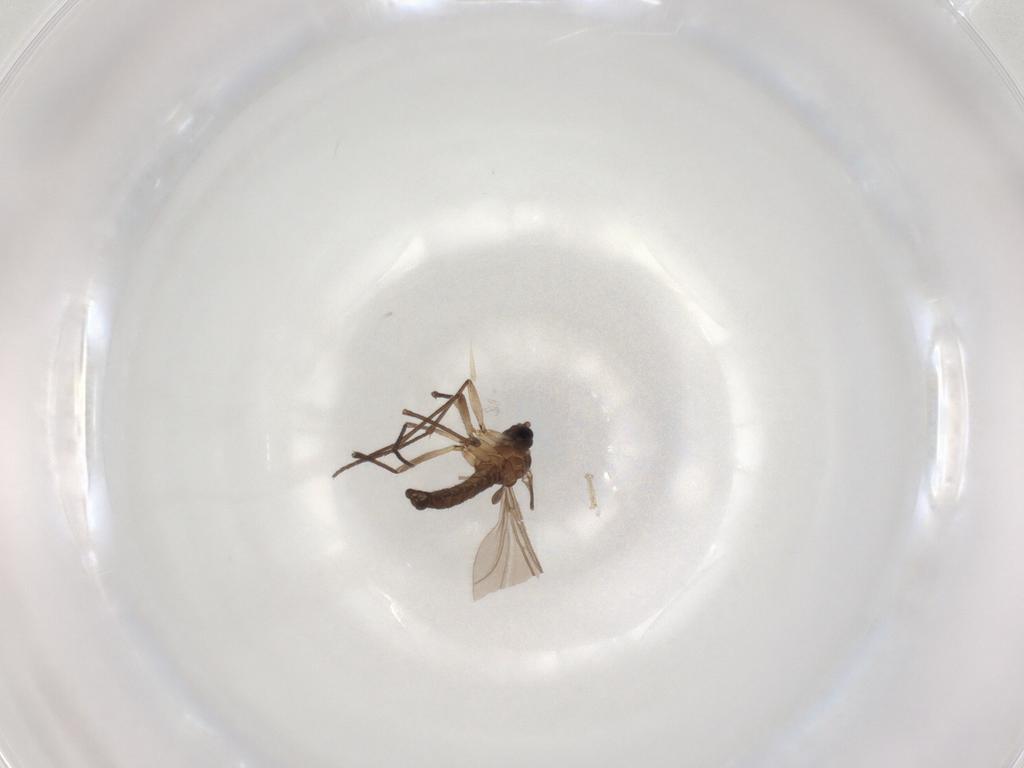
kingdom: Animalia
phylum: Arthropoda
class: Insecta
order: Diptera
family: Sciaridae
